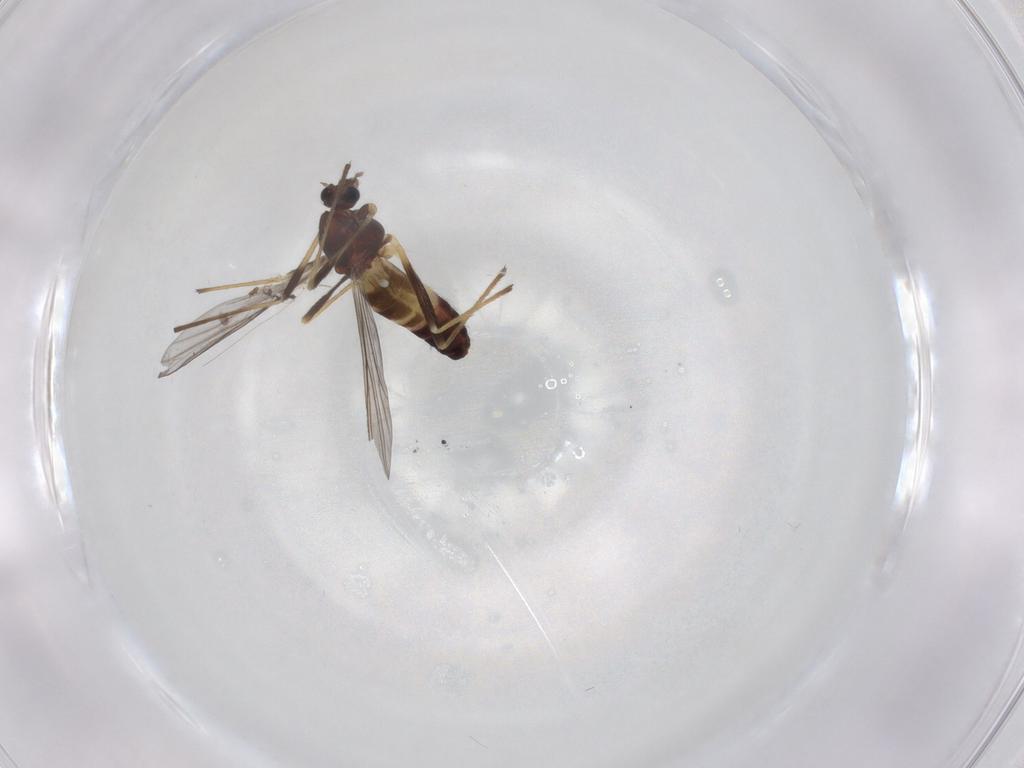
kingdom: Animalia
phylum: Arthropoda
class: Insecta
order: Diptera
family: Chironomidae
